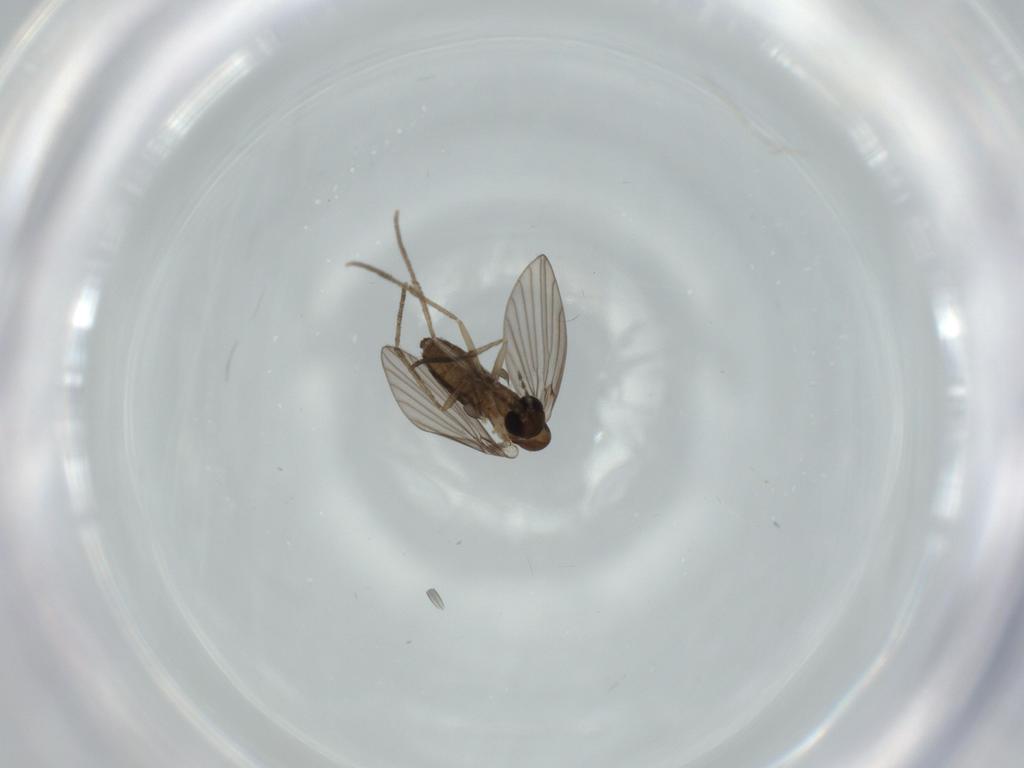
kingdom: Animalia
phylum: Arthropoda
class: Insecta
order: Diptera
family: Psychodidae
